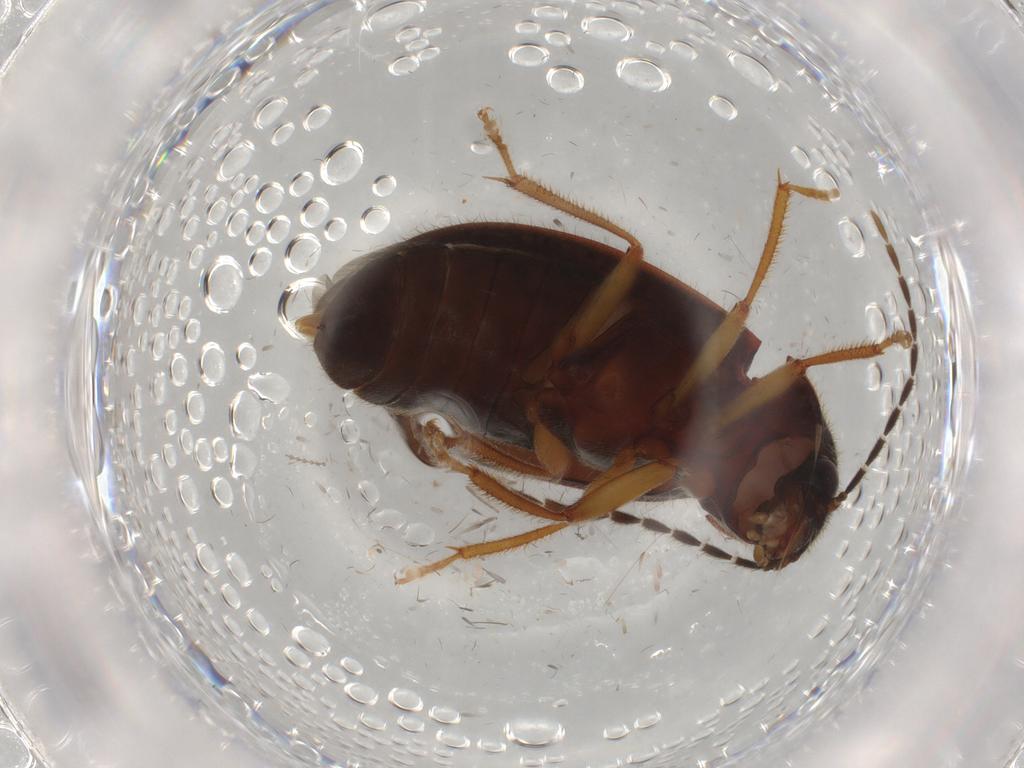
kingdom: Animalia
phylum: Arthropoda
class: Insecta
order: Coleoptera
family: Ptilodactylidae
